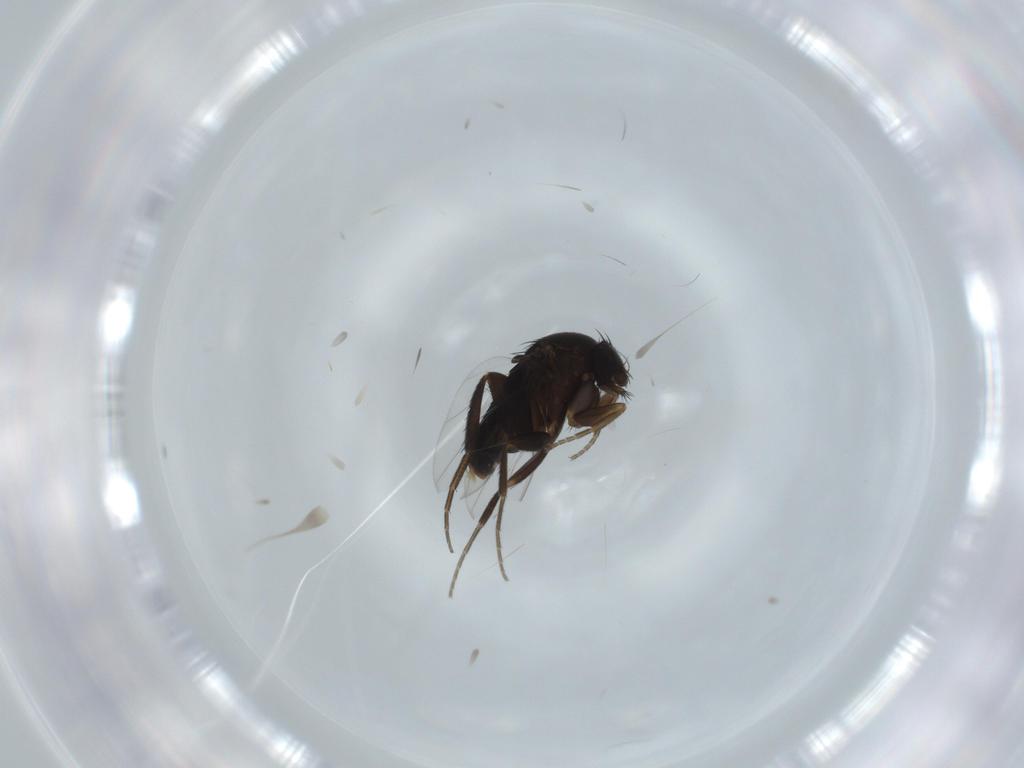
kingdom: Animalia
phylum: Arthropoda
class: Insecta
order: Diptera
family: Phoridae
